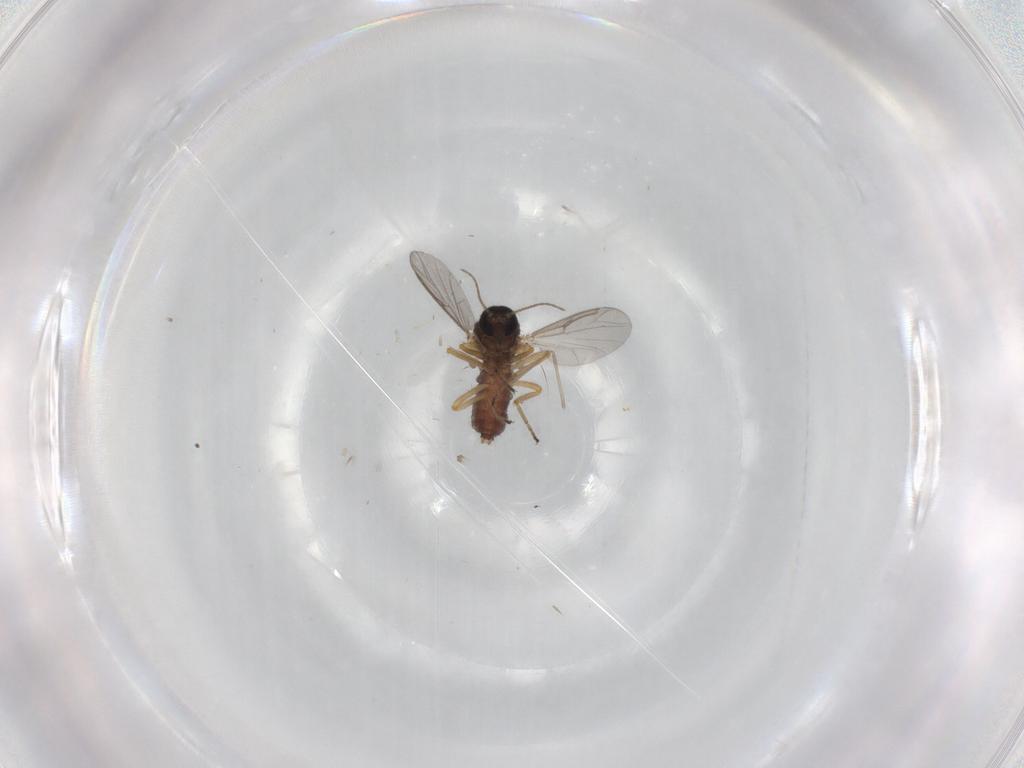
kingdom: Animalia
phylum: Arthropoda
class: Insecta
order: Diptera
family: Ceratopogonidae
